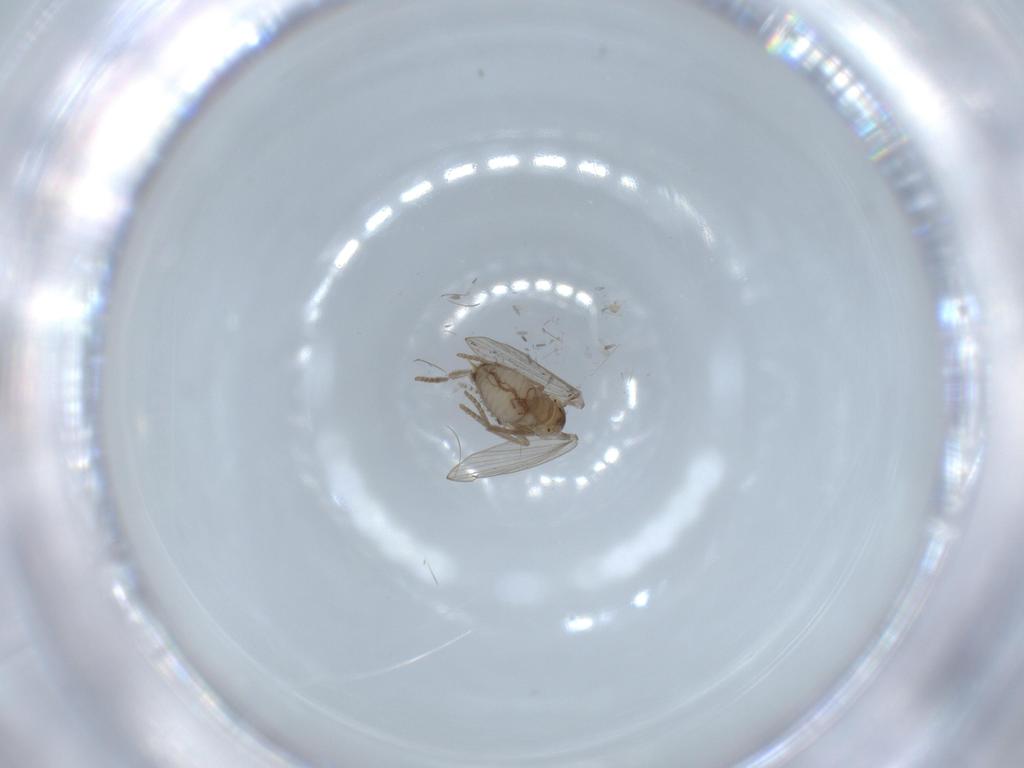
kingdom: Animalia
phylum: Arthropoda
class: Insecta
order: Diptera
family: Psychodidae
